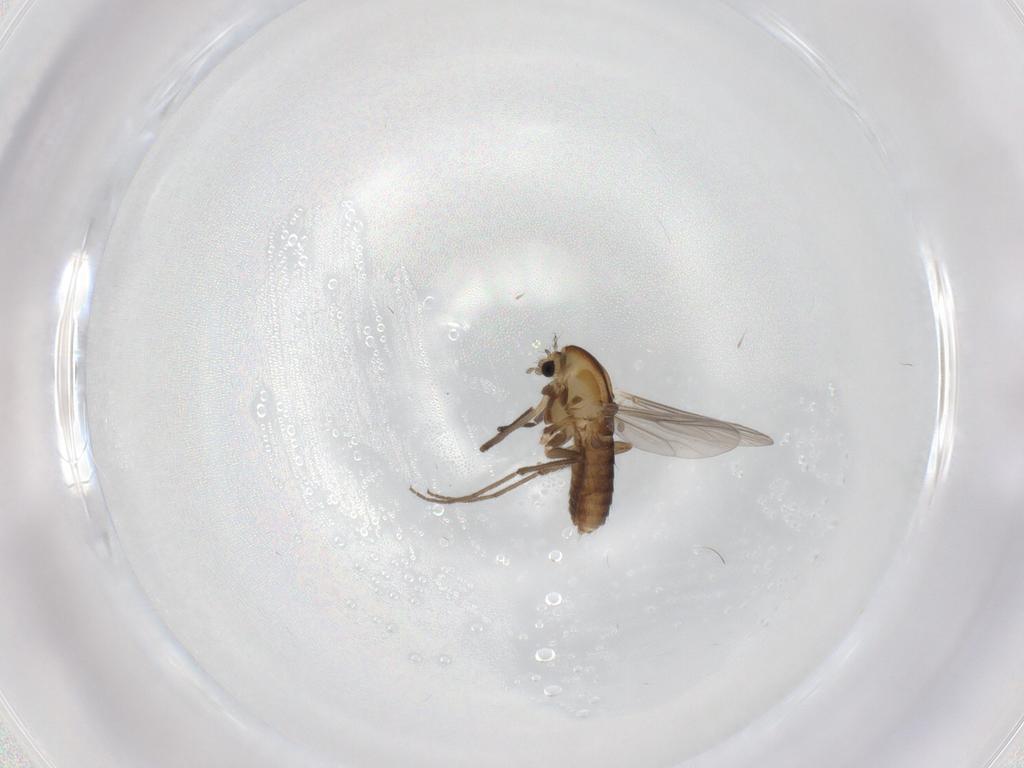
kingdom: Animalia
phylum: Arthropoda
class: Insecta
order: Diptera
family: Chironomidae
